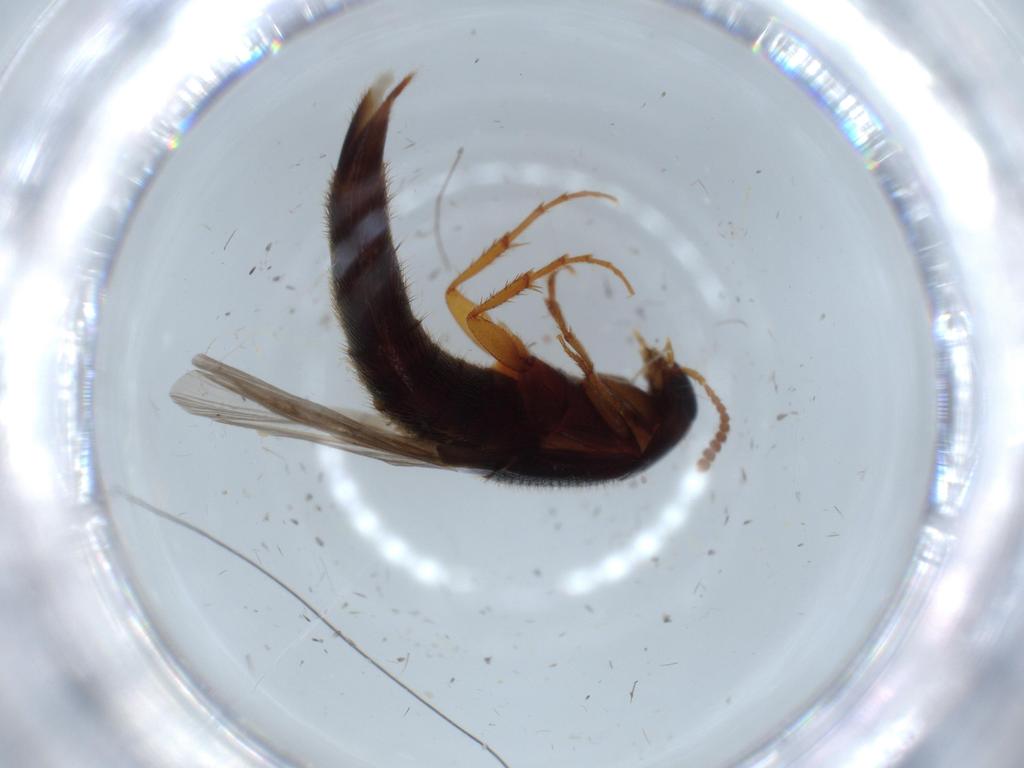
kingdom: Animalia
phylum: Arthropoda
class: Insecta
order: Coleoptera
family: Staphylinidae
